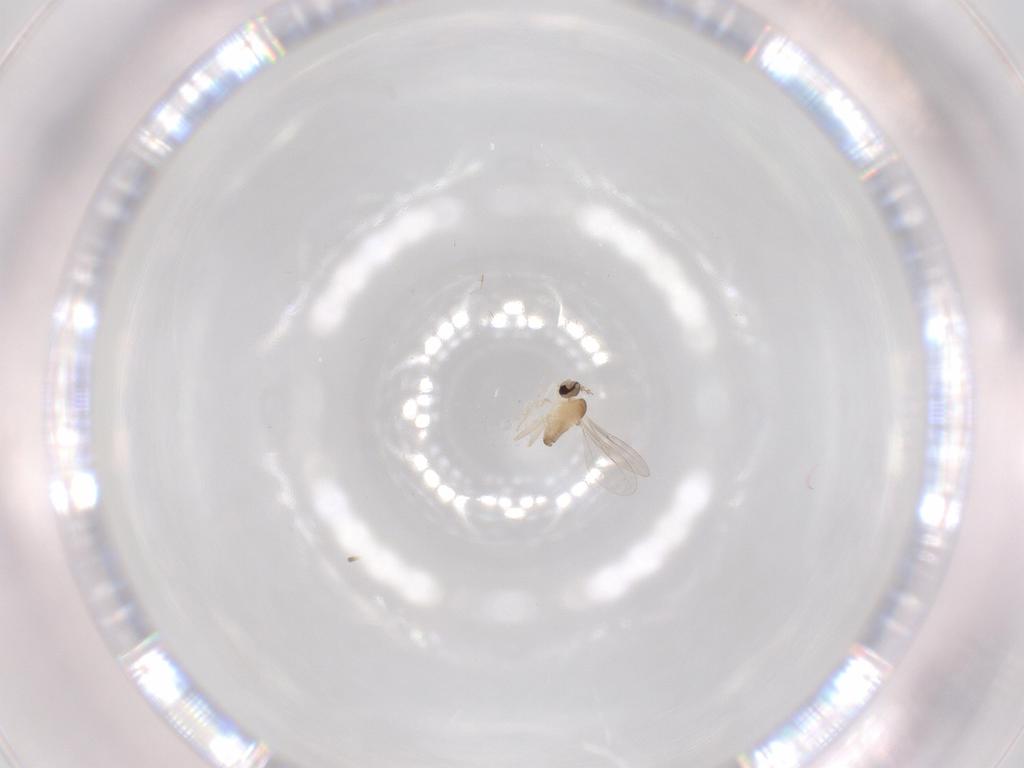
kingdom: Animalia
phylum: Arthropoda
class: Insecta
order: Diptera
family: Cecidomyiidae
